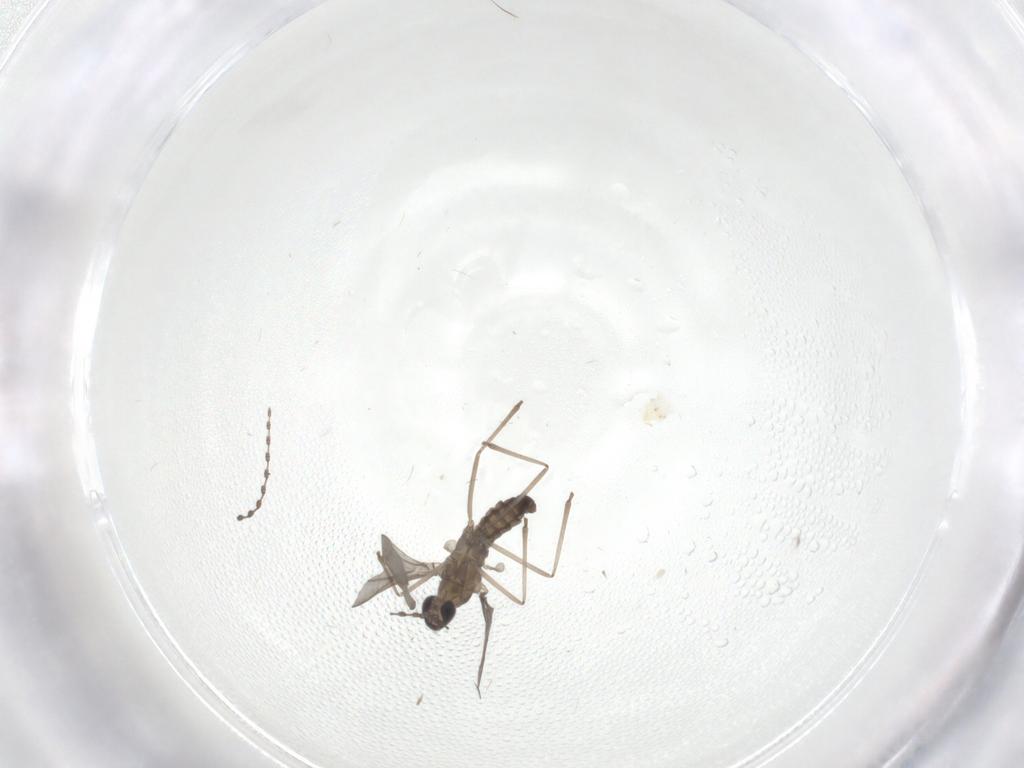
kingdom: Animalia
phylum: Arthropoda
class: Insecta
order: Diptera
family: Cecidomyiidae
